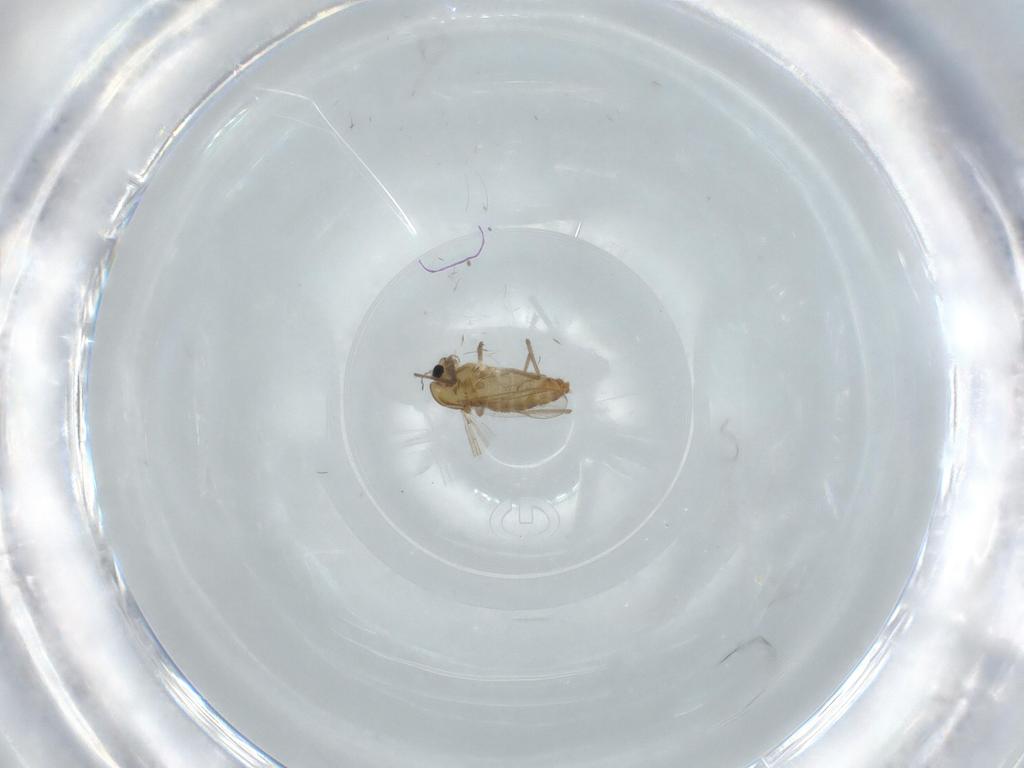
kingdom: Animalia
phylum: Arthropoda
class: Insecta
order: Diptera
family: Chironomidae
